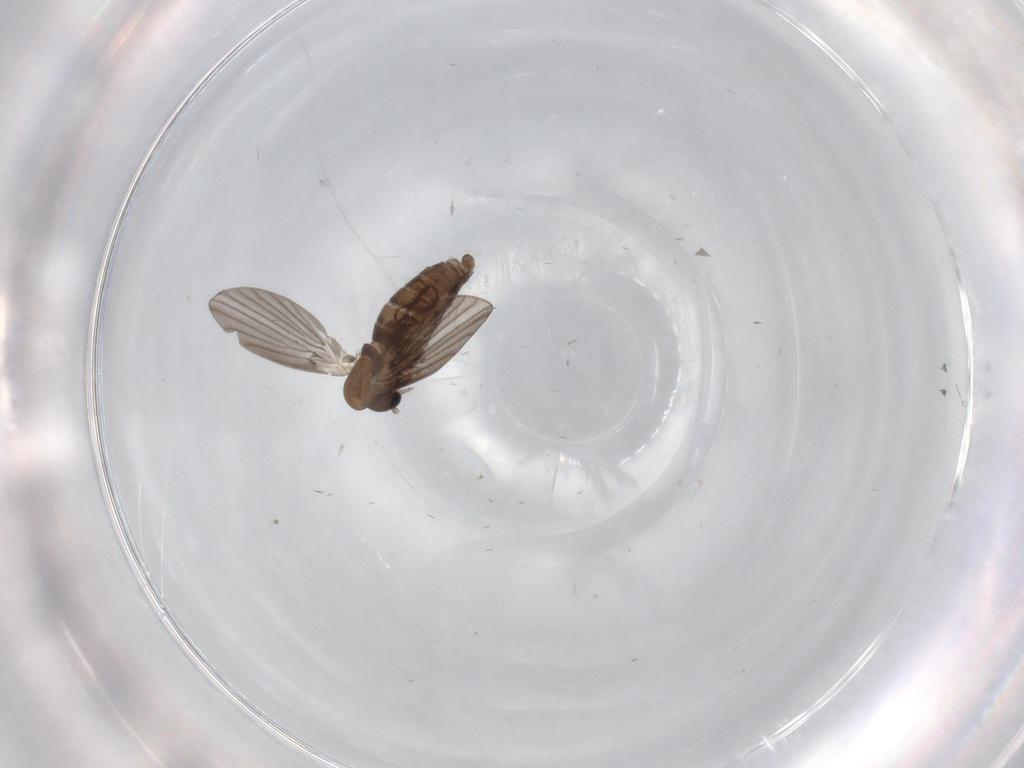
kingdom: Animalia
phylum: Arthropoda
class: Insecta
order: Diptera
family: Psychodidae
